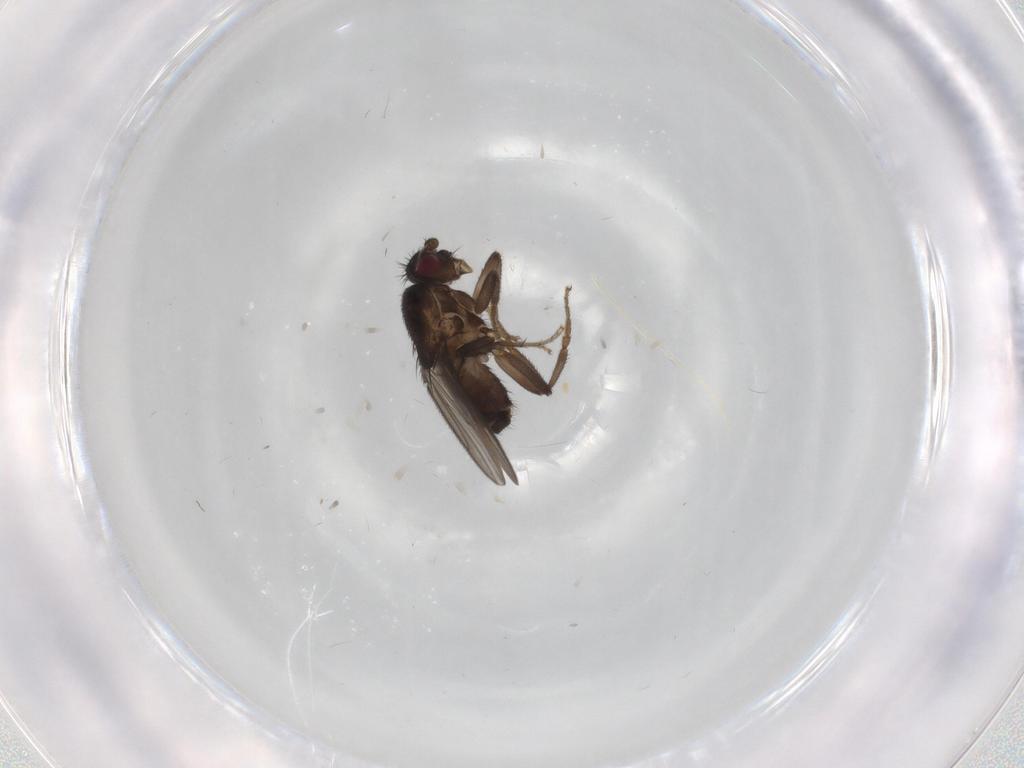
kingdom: Animalia
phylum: Arthropoda
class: Insecta
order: Diptera
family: Sphaeroceridae
